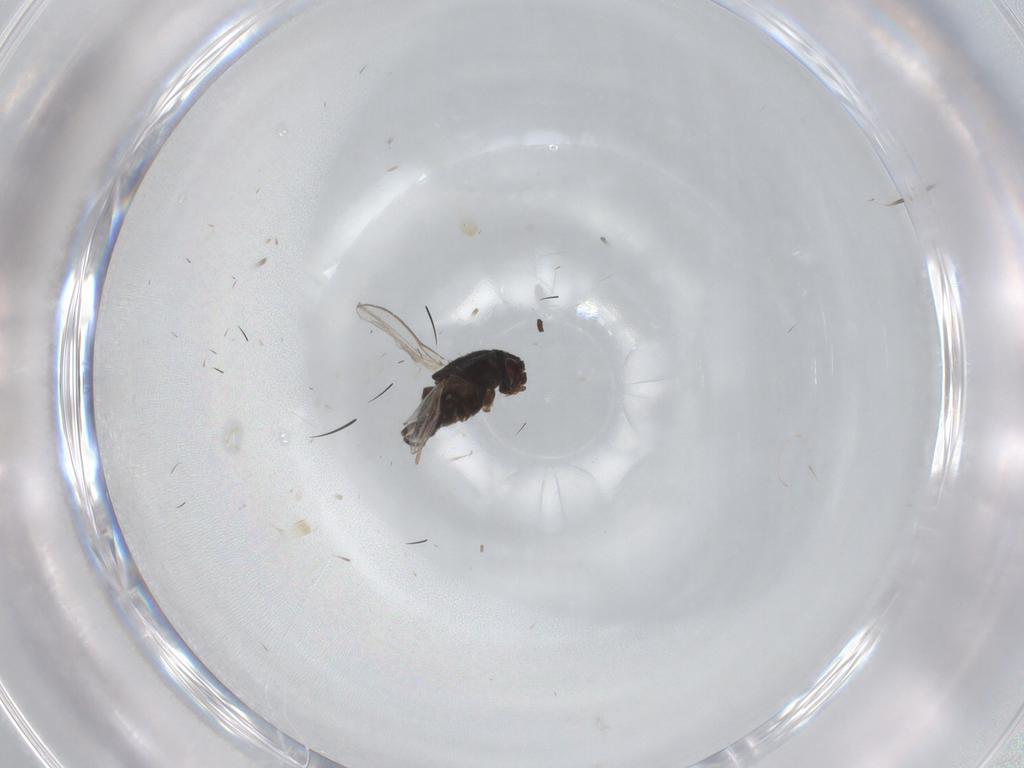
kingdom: Animalia
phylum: Arthropoda
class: Insecta
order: Diptera
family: Milichiidae
